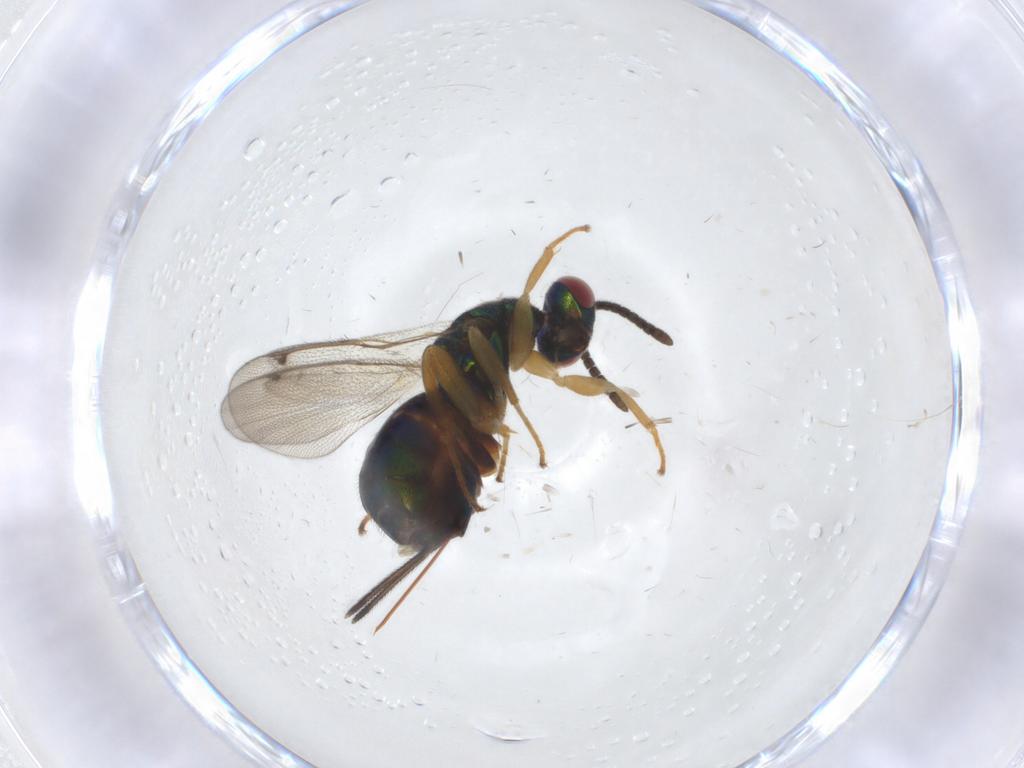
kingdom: Animalia
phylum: Arthropoda
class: Insecta
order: Hymenoptera
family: Torymidae
